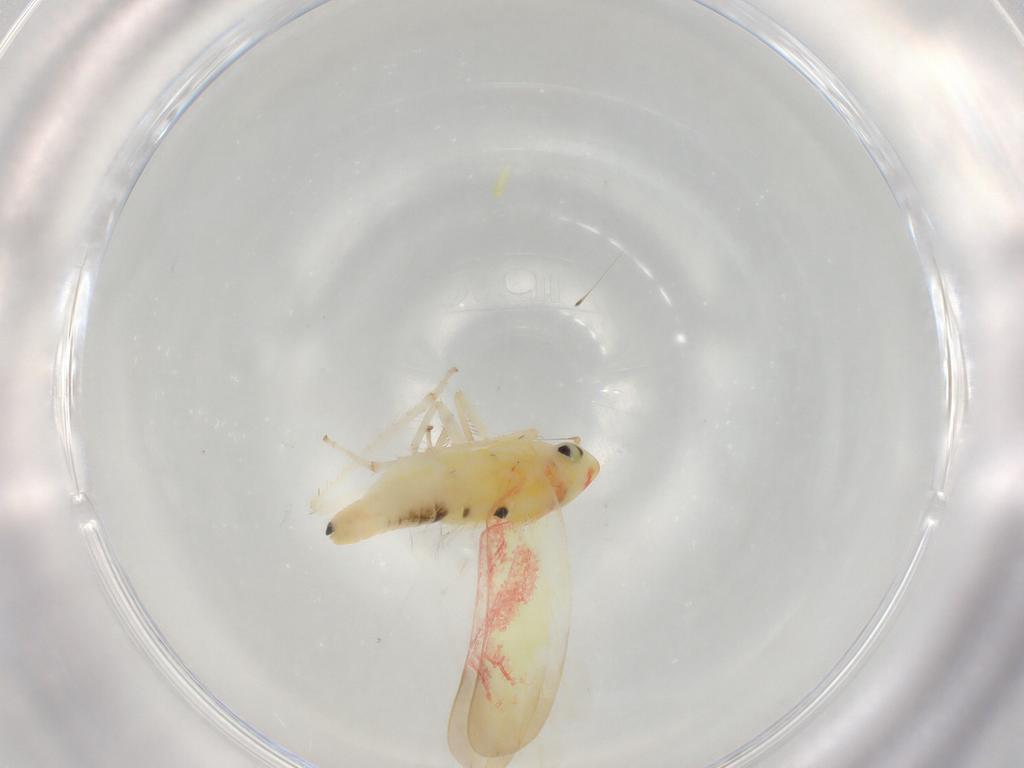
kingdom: Animalia
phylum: Arthropoda
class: Insecta
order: Hemiptera
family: Cicadellidae
